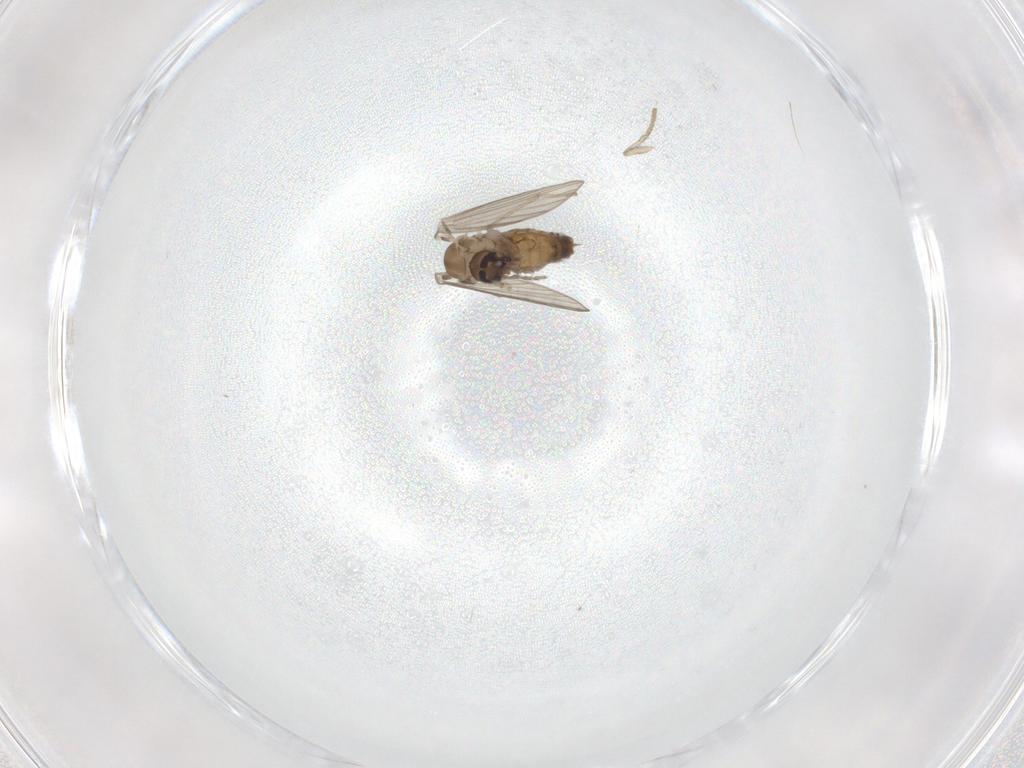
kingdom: Animalia
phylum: Arthropoda
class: Insecta
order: Diptera
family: Psychodidae
